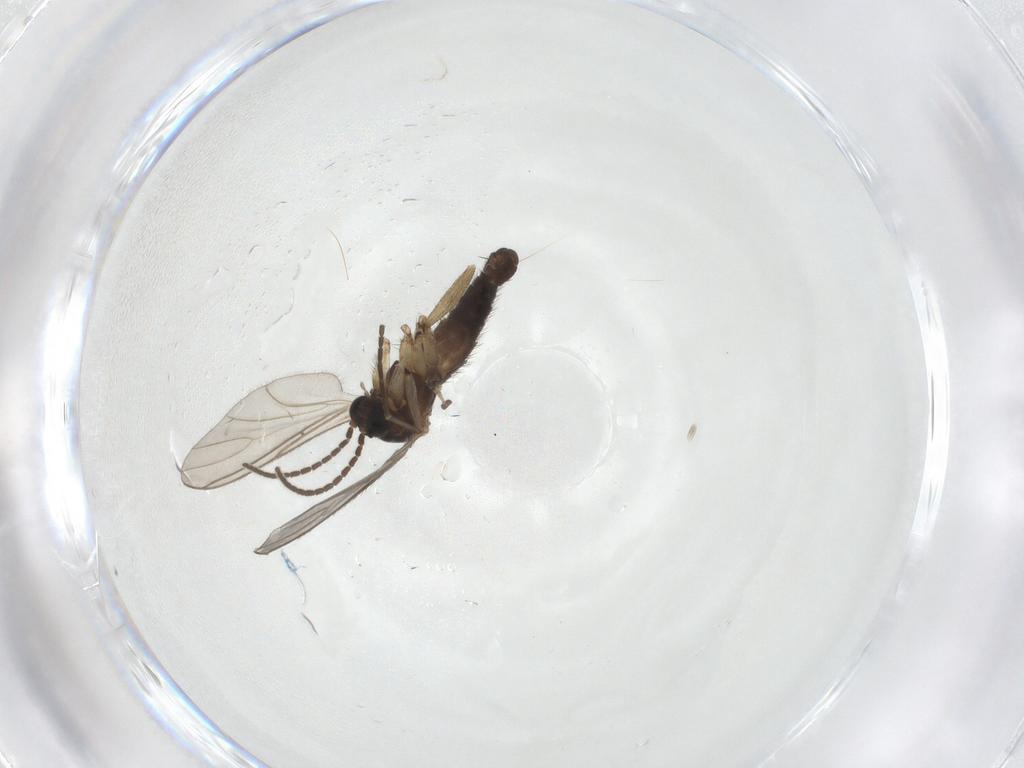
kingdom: Animalia
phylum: Arthropoda
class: Insecta
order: Diptera
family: Sciaridae
